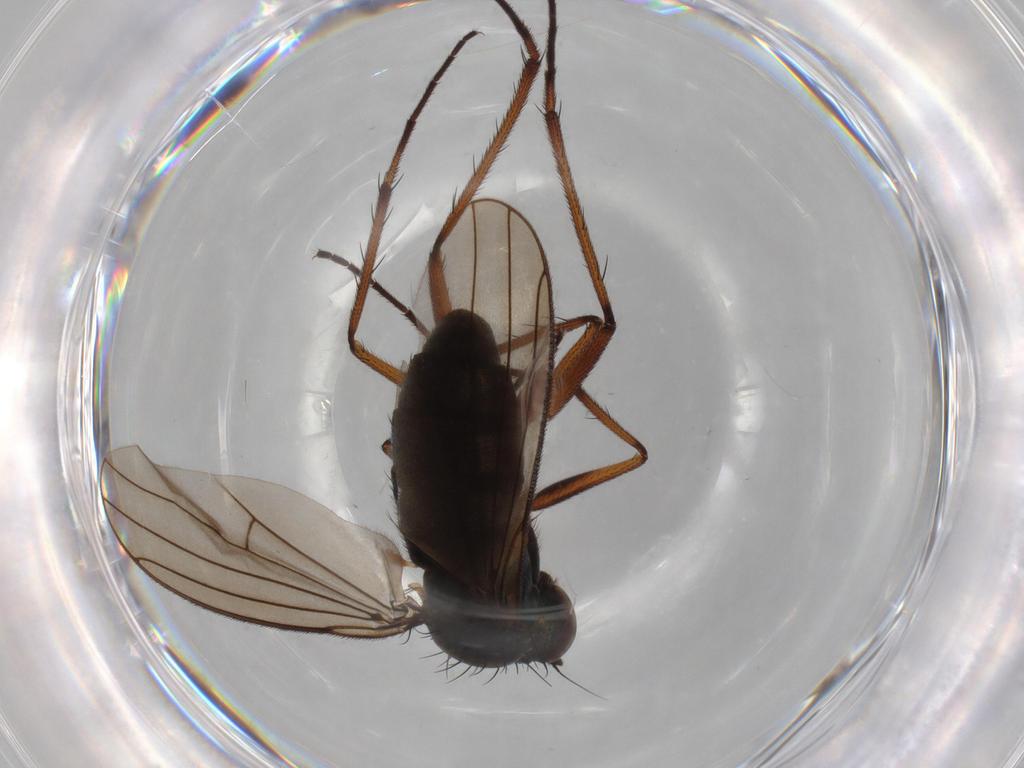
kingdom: Animalia
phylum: Arthropoda
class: Insecta
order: Diptera
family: Dolichopodidae
